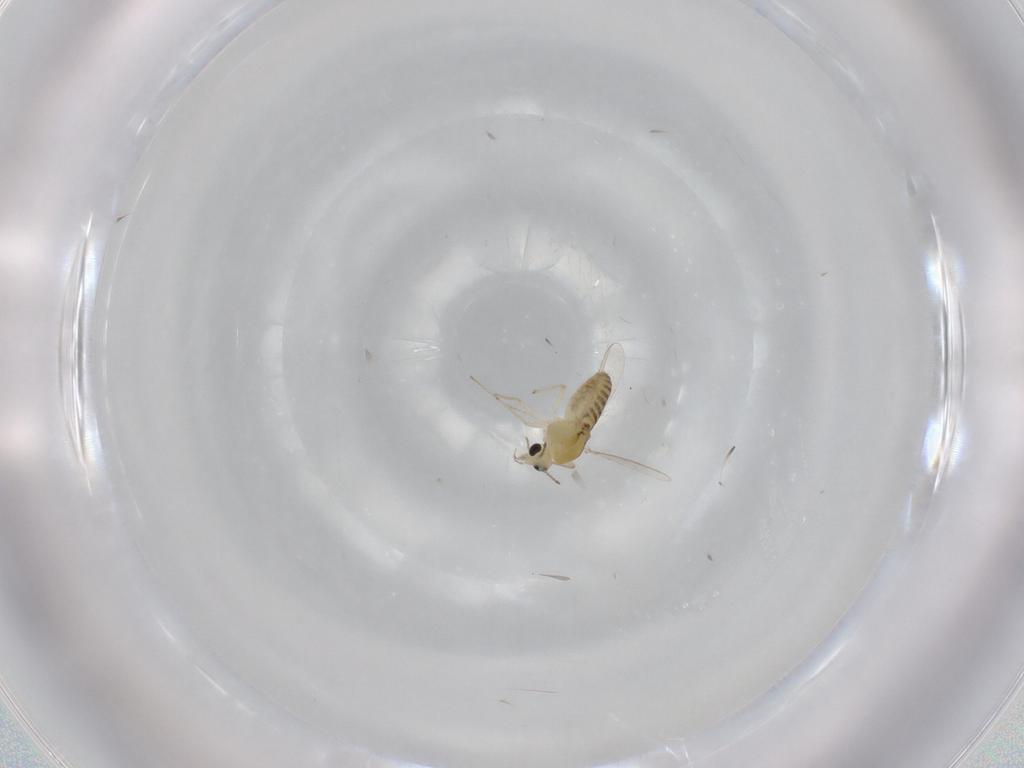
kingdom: Animalia
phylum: Arthropoda
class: Insecta
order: Diptera
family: Chironomidae
